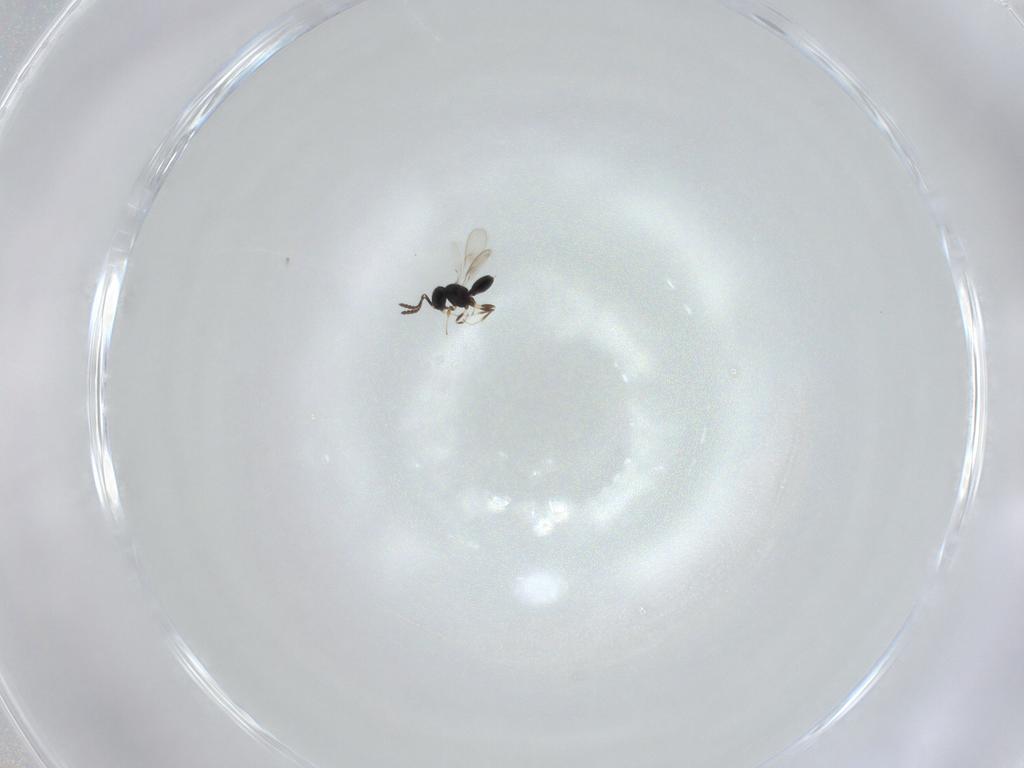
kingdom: Animalia
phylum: Arthropoda
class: Insecta
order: Hymenoptera
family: Scelionidae
